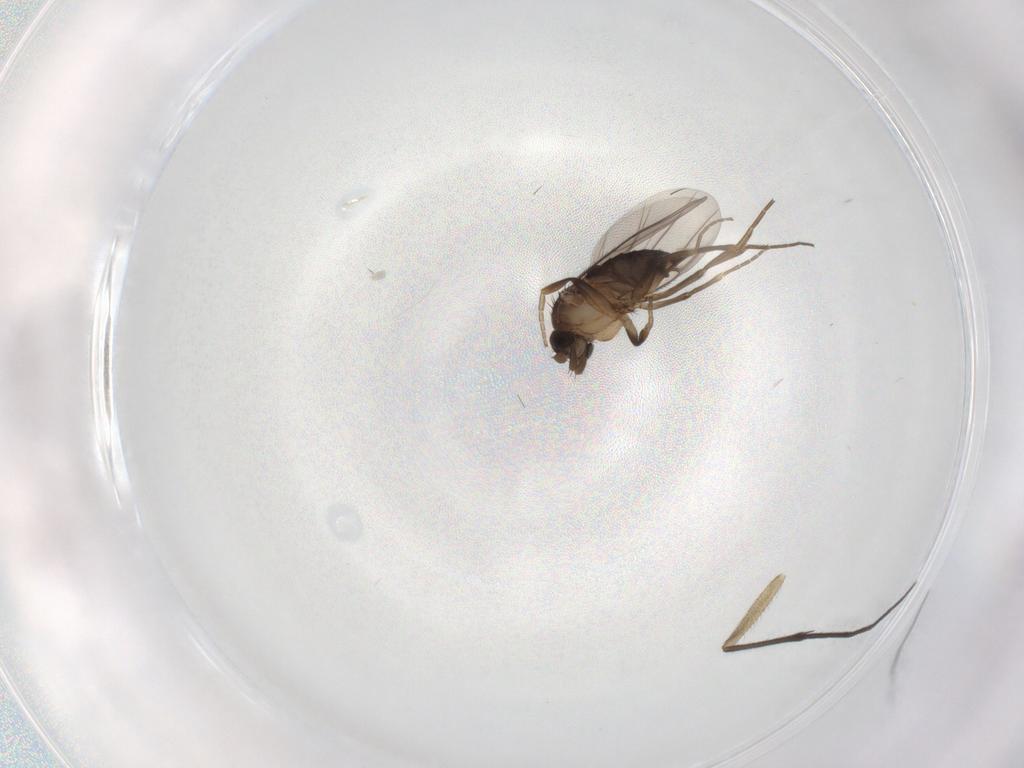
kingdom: Animalia
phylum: Arthropoda
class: Insecta
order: Diptera
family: Phoridae
